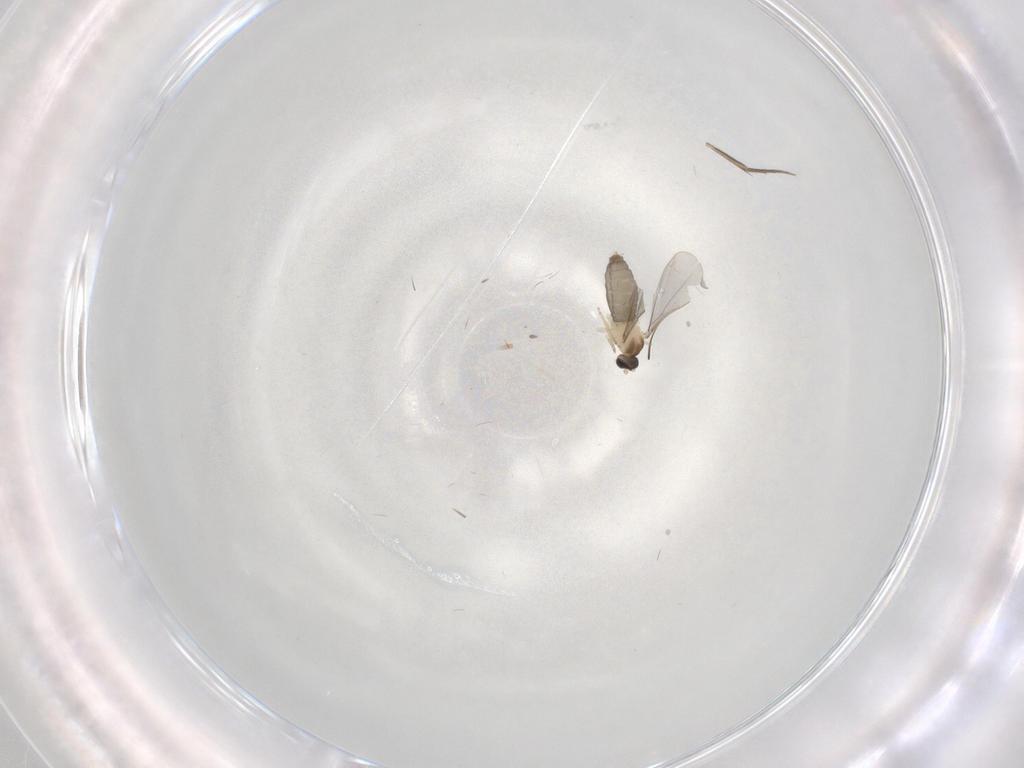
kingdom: Animalia
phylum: Arthropoda
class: Insecta
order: Diptera
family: Cecidomyiidae
